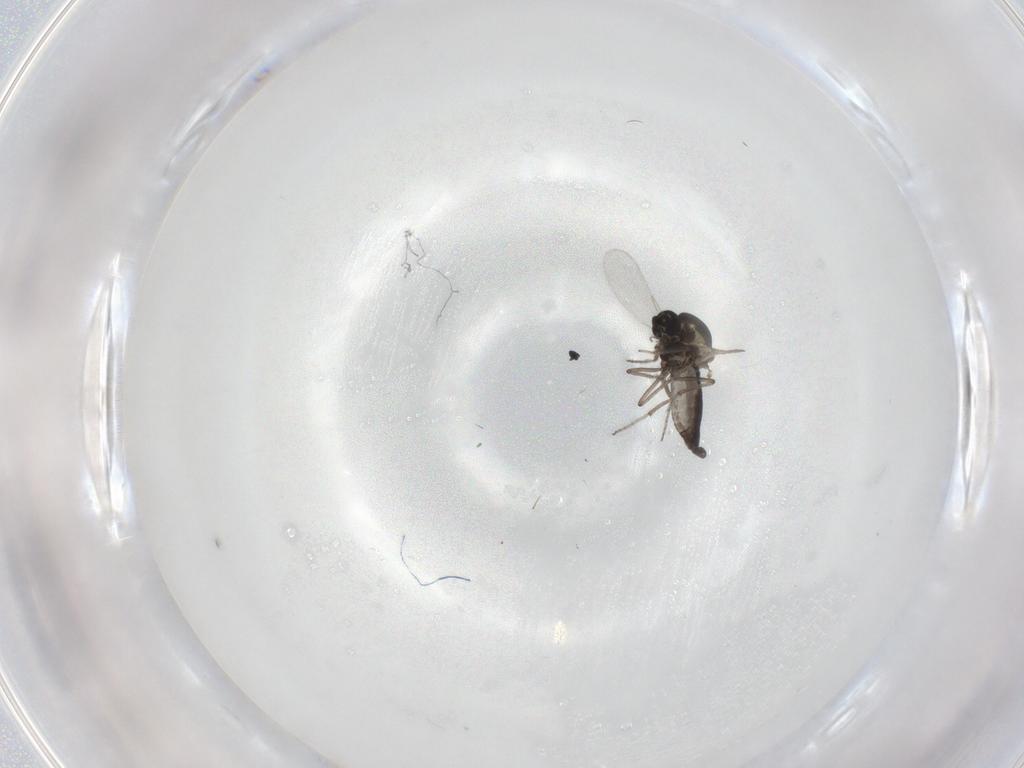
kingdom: Animalia
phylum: Arthropoda
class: Insecta
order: Diptera
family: Ceratopogonidae
